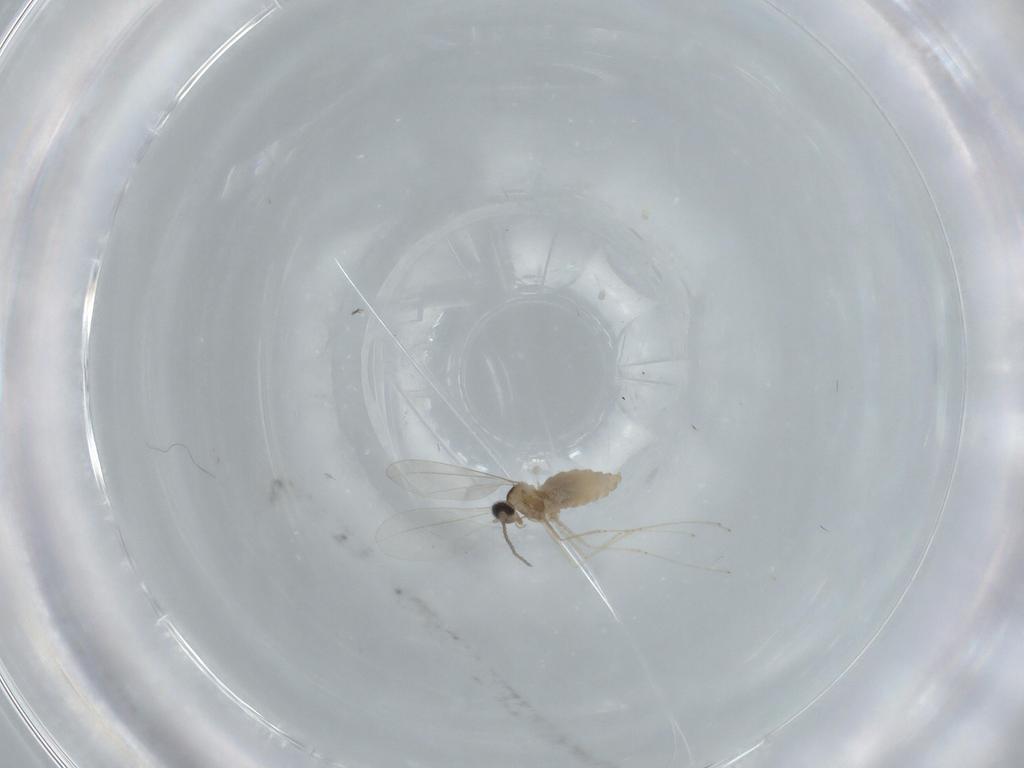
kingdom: Animalia
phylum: Arthropoda
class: Insecta
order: Diptera
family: Cecidomyiidae
